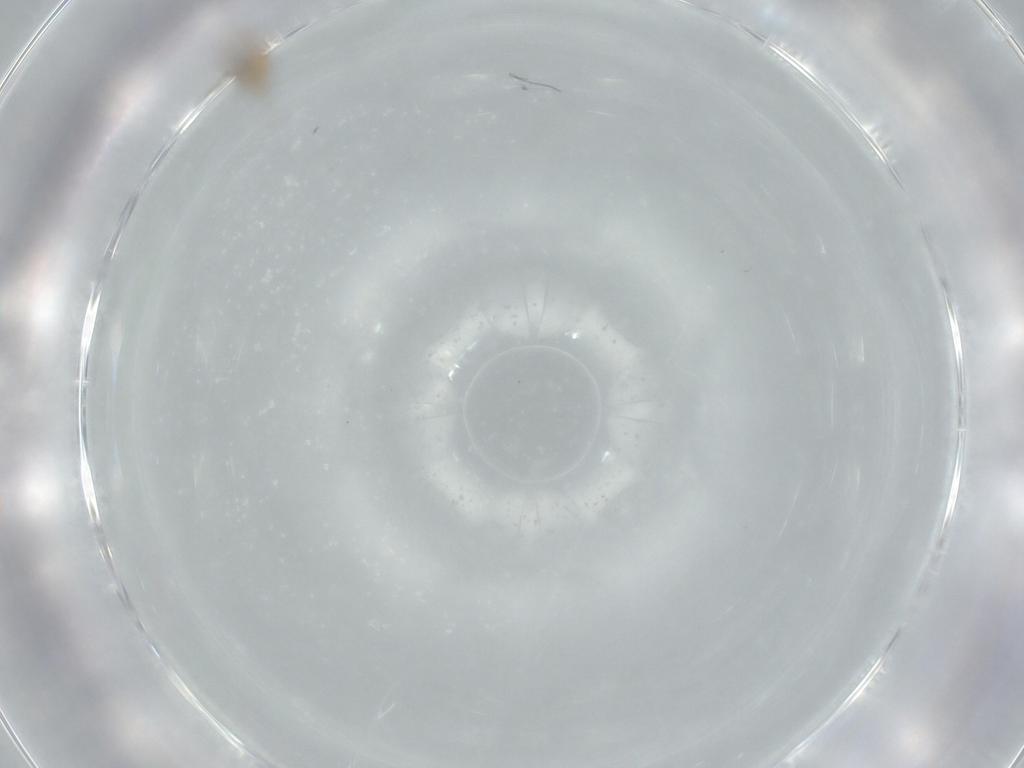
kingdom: Animalia
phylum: Arthropoda
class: Insecta
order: Diptera
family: Cecidomyiidae
